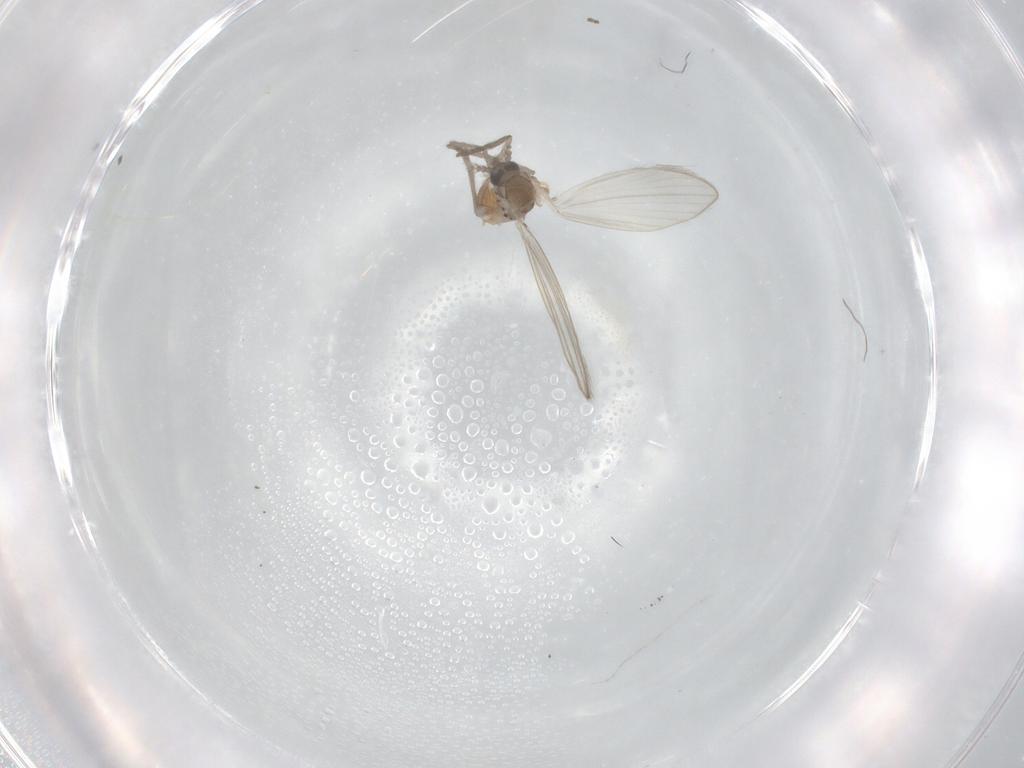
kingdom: Animalia
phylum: Arthropoda
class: Insecta
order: Diptera
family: Psychodidae
